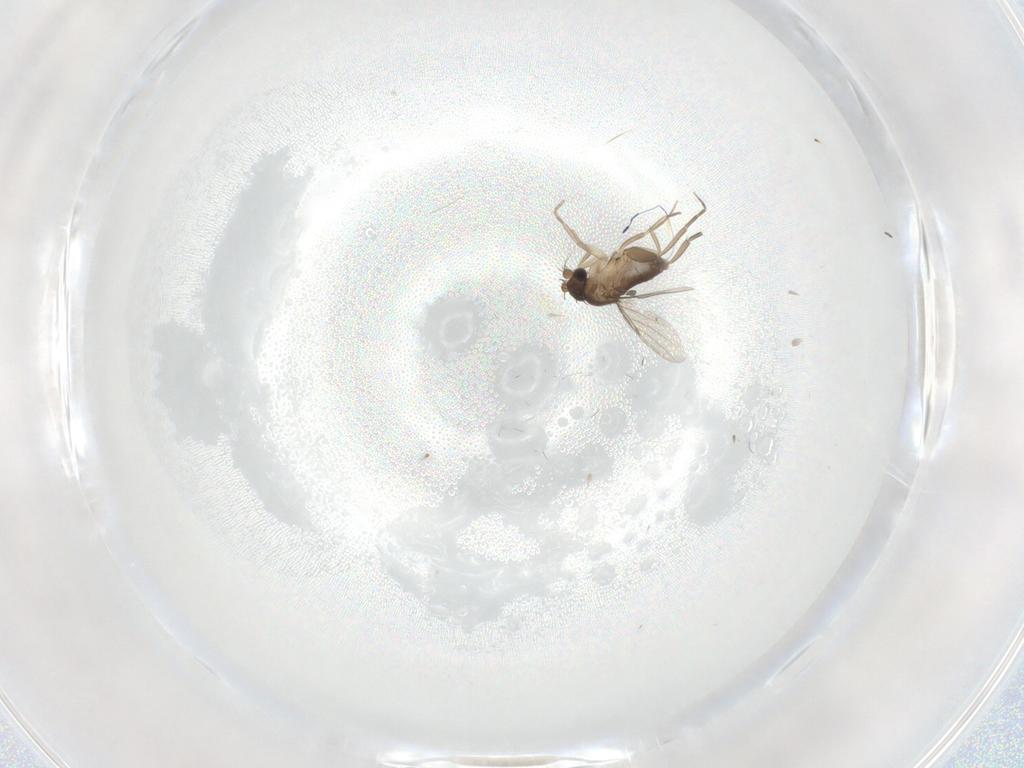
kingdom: Animalia
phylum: Arthropoda
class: Insecta
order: Diptera
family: Phoridae
